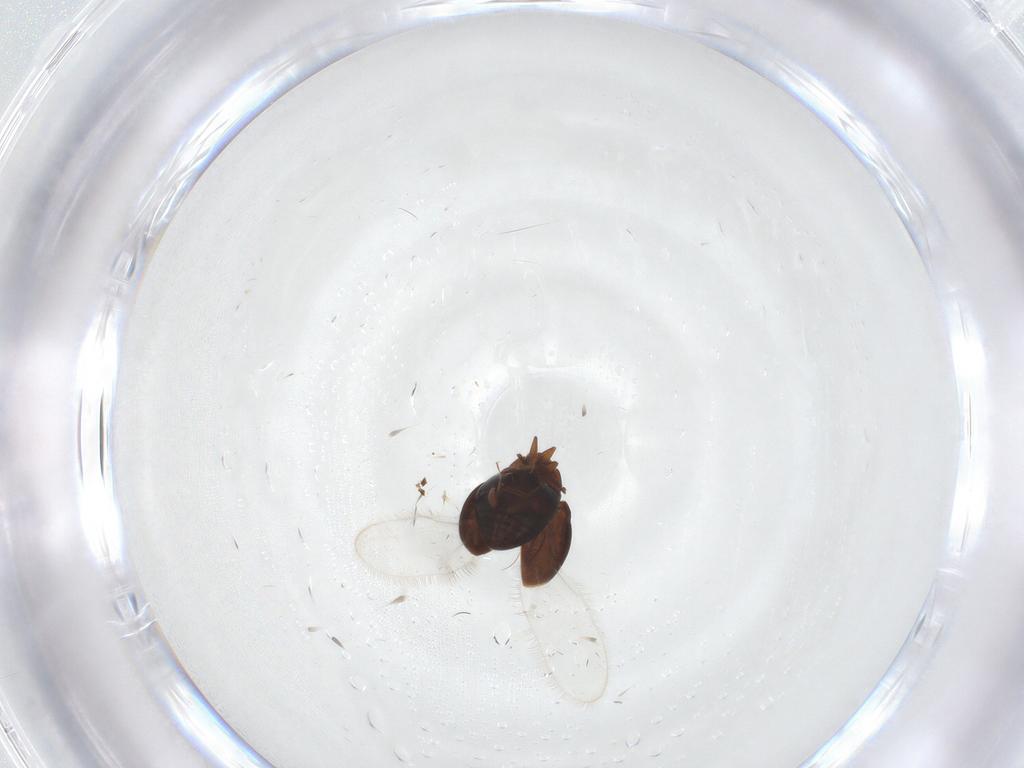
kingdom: Animalia
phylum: Arthropoda
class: Insecta
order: Coleoptera
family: Corylophidae
